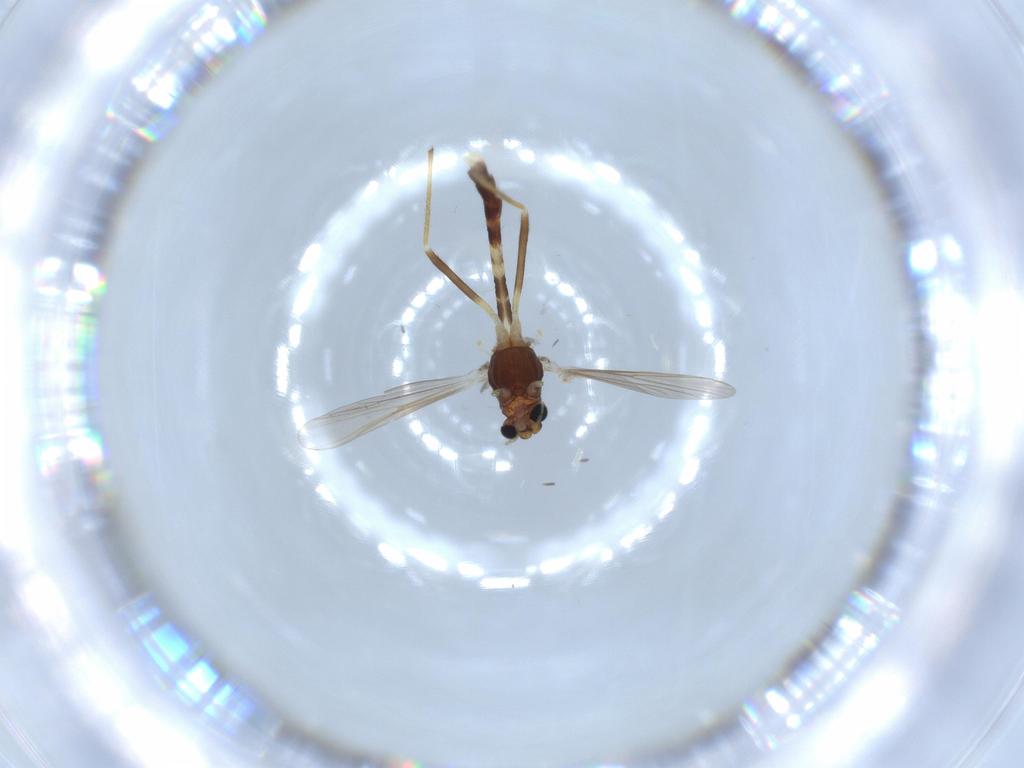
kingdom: Animalia
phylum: Arthropoda
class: Insecta
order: Diptera
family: Chironomidae
